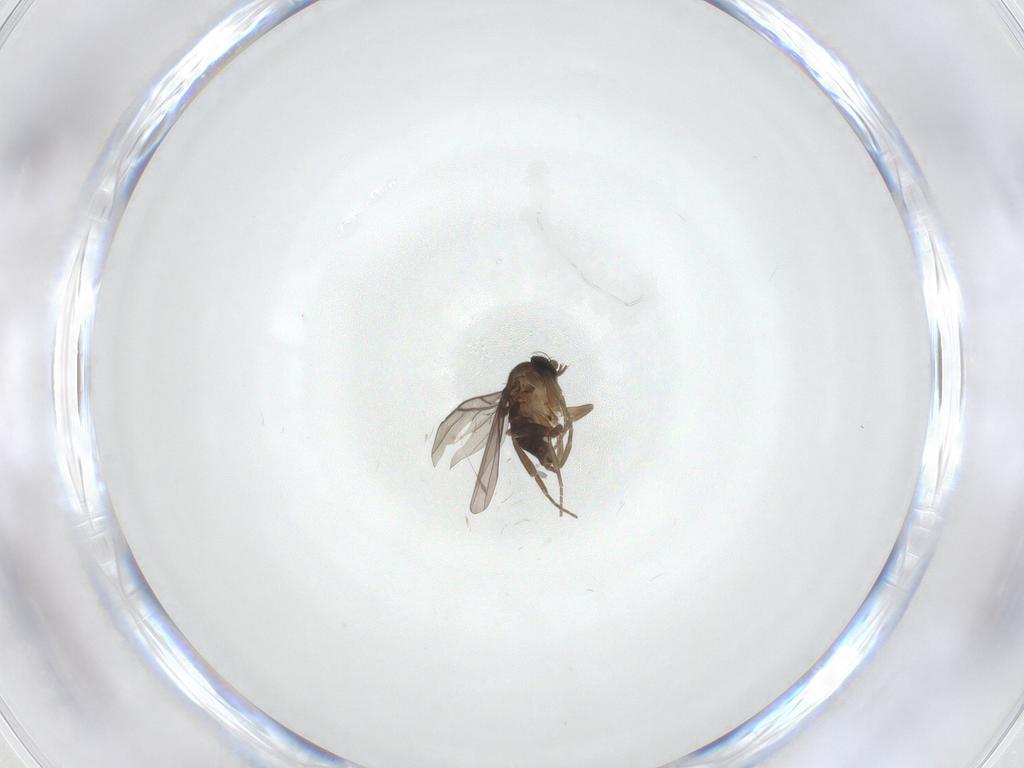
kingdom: Animalia
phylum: Arthropoda
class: Insecta
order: Diptera
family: Phoridae
